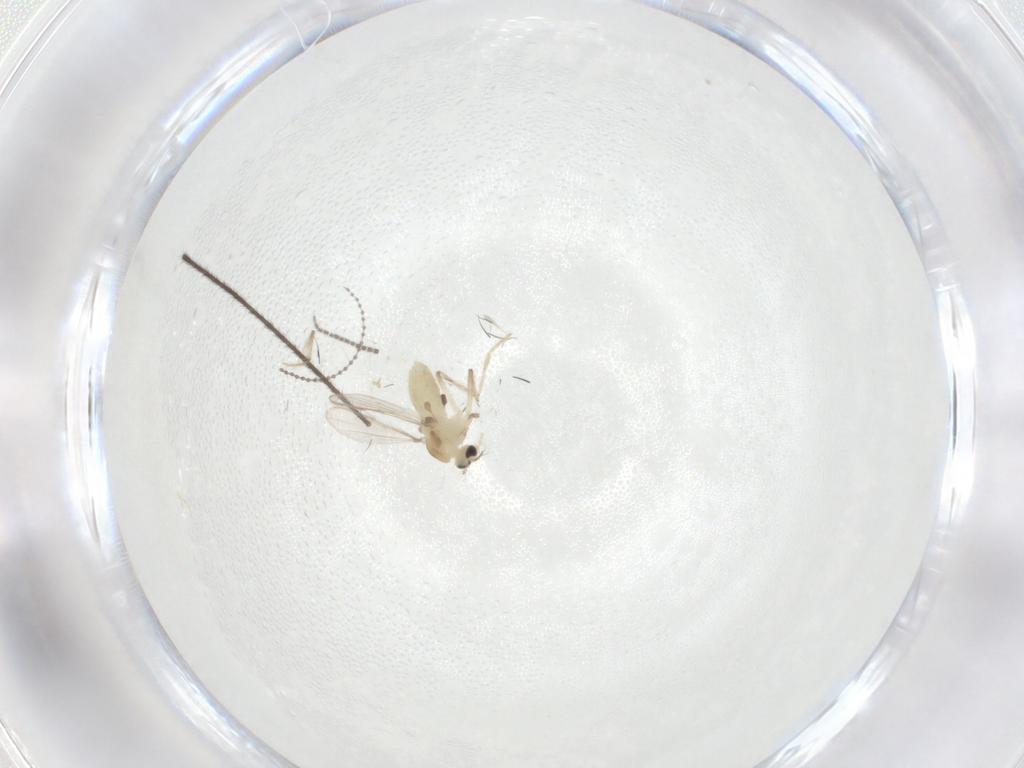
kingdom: Animalia
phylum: Arthropoda
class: Insecta
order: Diptera
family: Chironomidae
